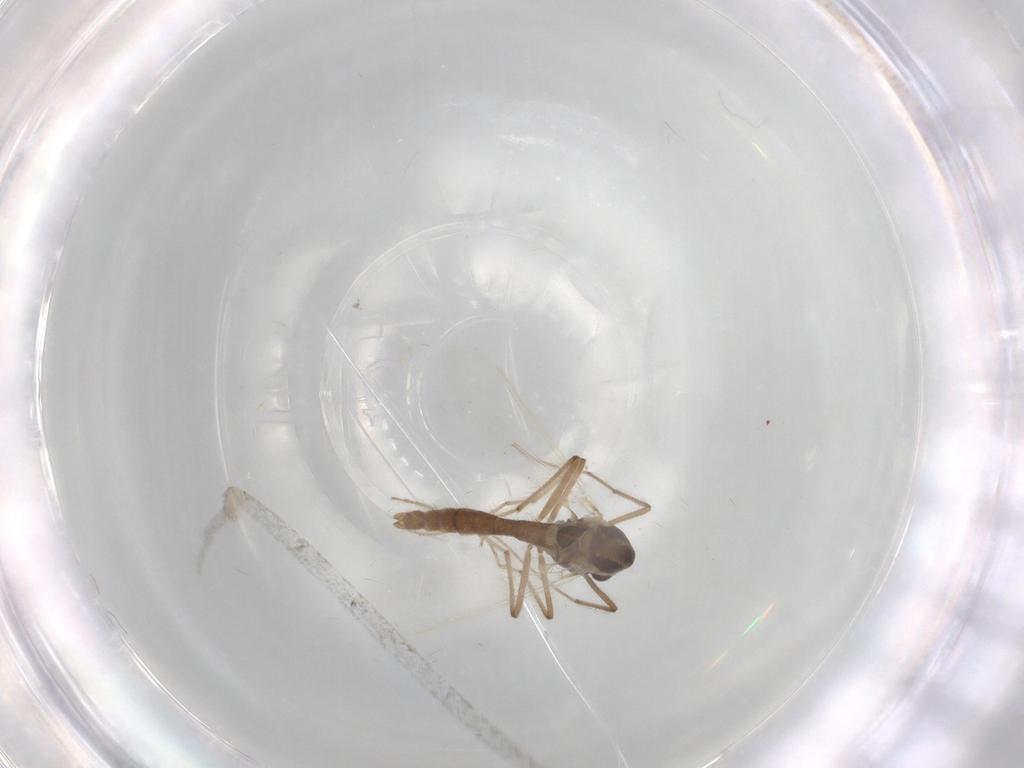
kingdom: Animalia
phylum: Arthropoda
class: Insecta
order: Diptera
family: Chironomidae
